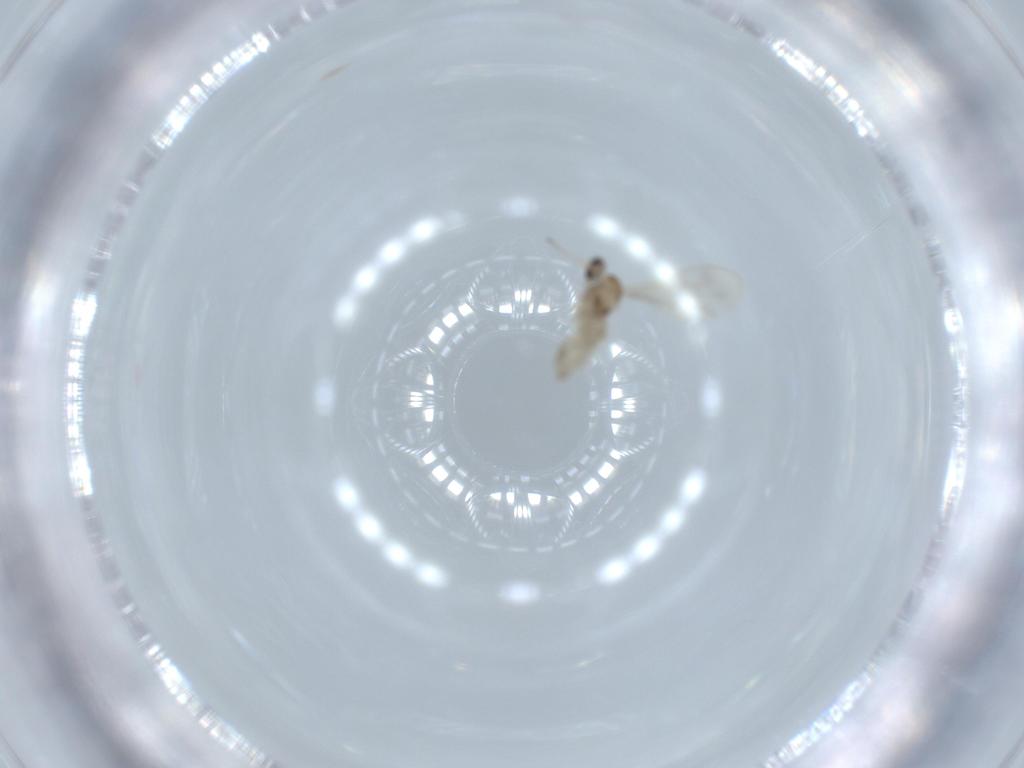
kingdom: Animalia
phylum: Arthropoda
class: Insecta
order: Diptera
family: Cecidomyiidae
